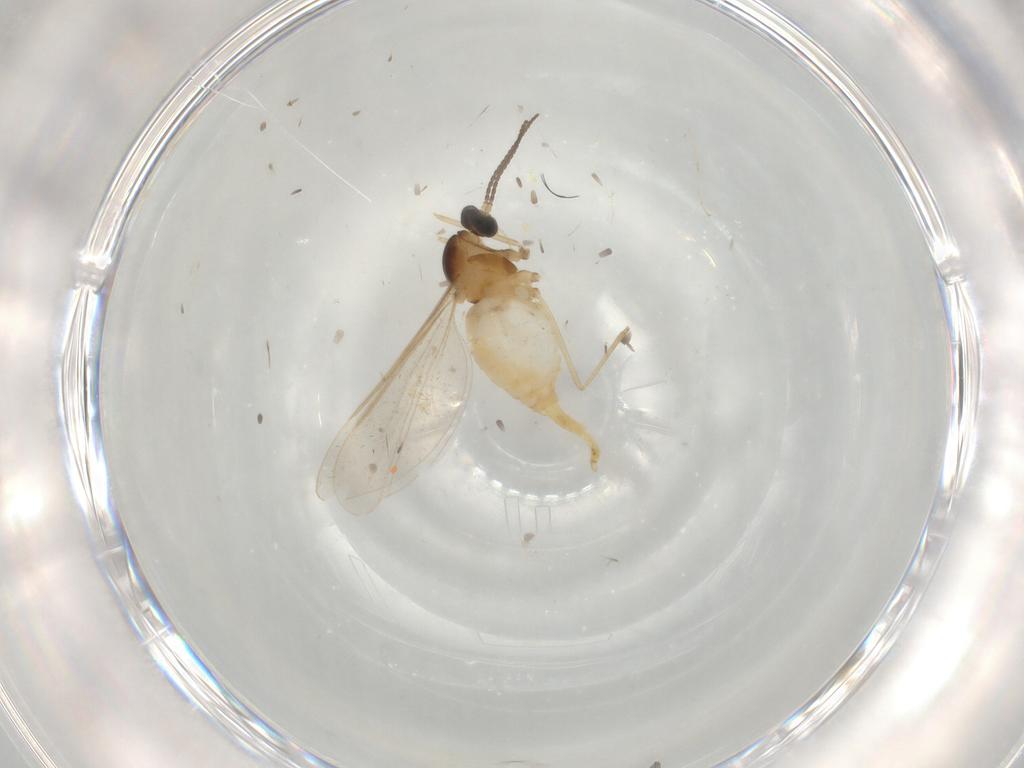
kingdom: Animalia
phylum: Arthropoda
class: Insecta
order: Diptera
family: Cecidomyiidae
